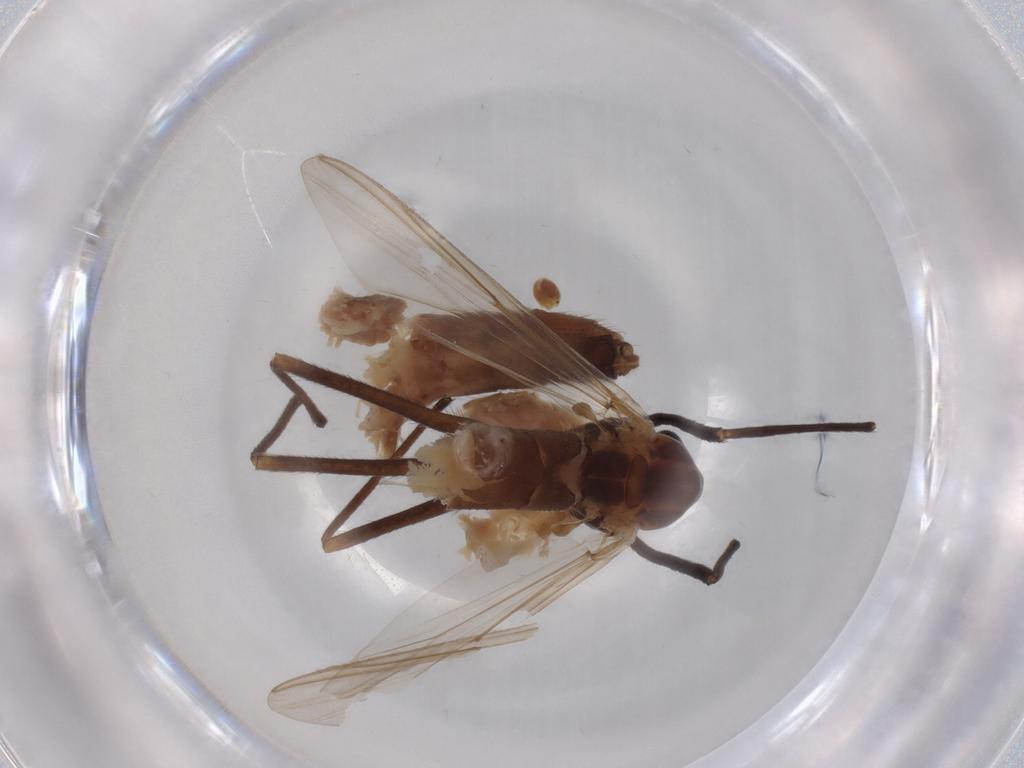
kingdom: Animalia
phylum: Arthropoda
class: Insecta
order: Diptera
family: Chironomidae
